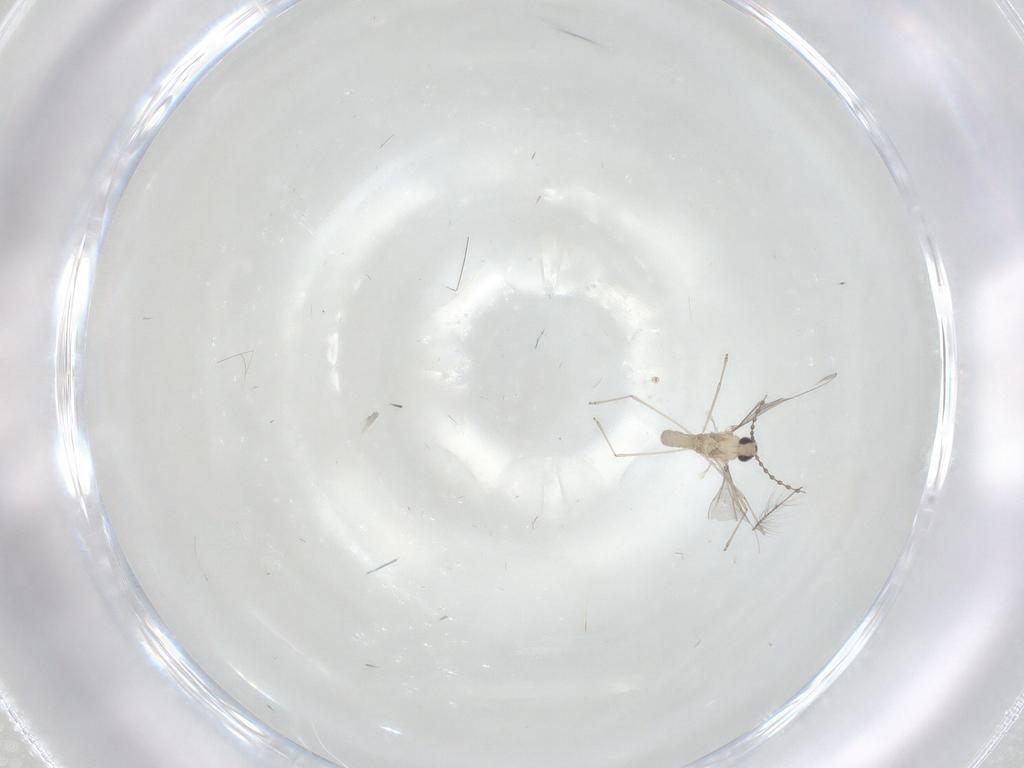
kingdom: Animalia
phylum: Arthropoda
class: Insecta
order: Diptera
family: Cecidomyiidae
